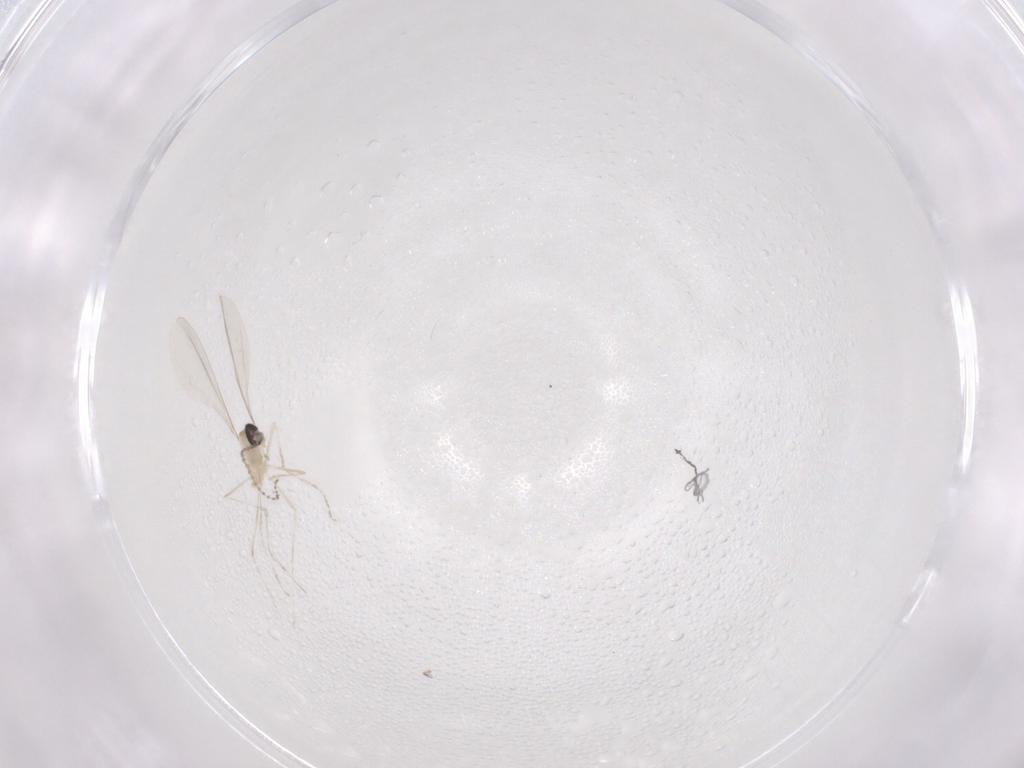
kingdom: Animalia
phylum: Arthropoda
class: Insecta
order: Diptera
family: Cecidomyiidae
